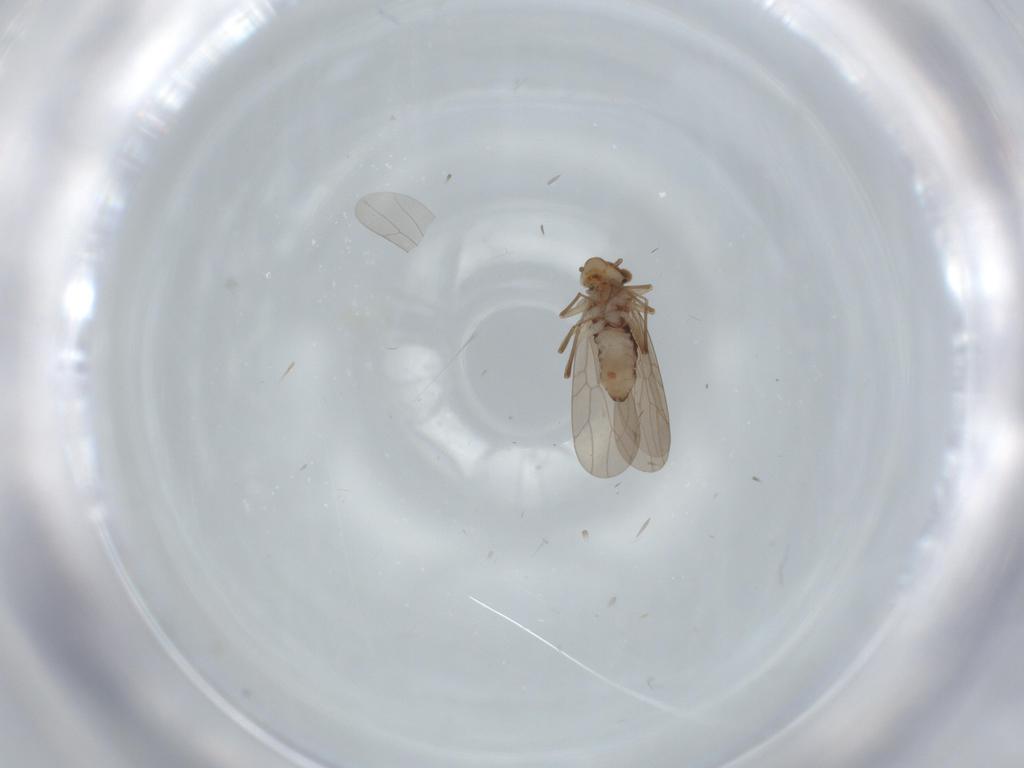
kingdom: Animalia
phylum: Arthropoda
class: Insecta
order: Psocodea
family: Lepidopsocidae
